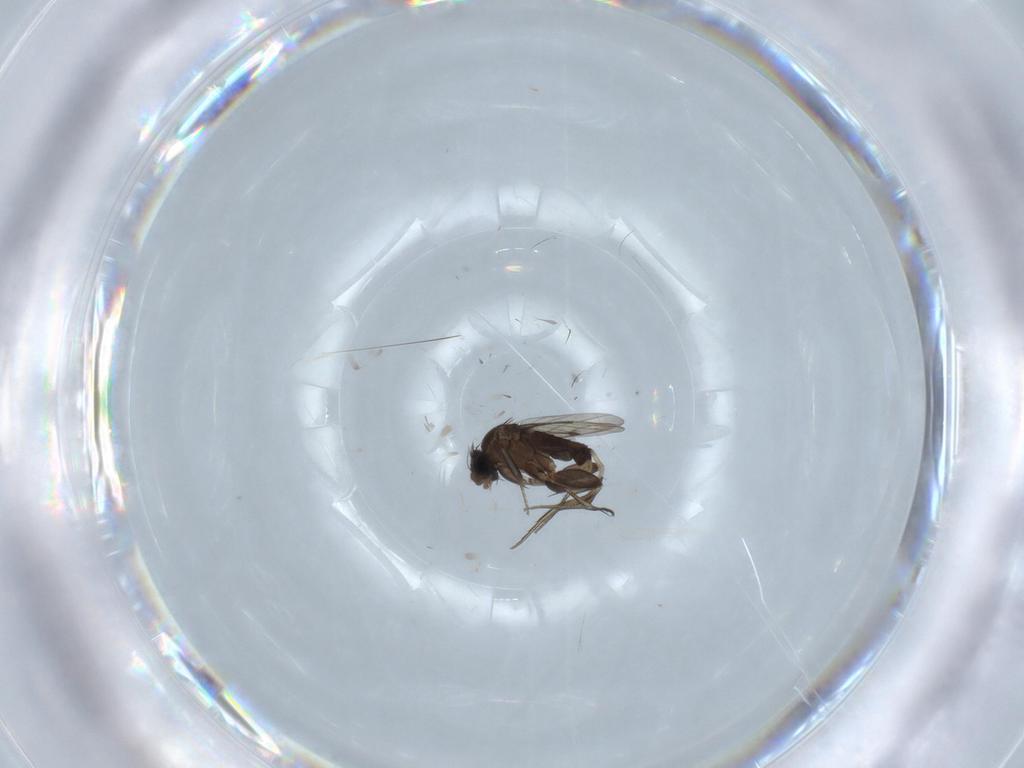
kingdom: Animalia
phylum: Arthropoda
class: Insecta
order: Diptera
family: Phoridae
